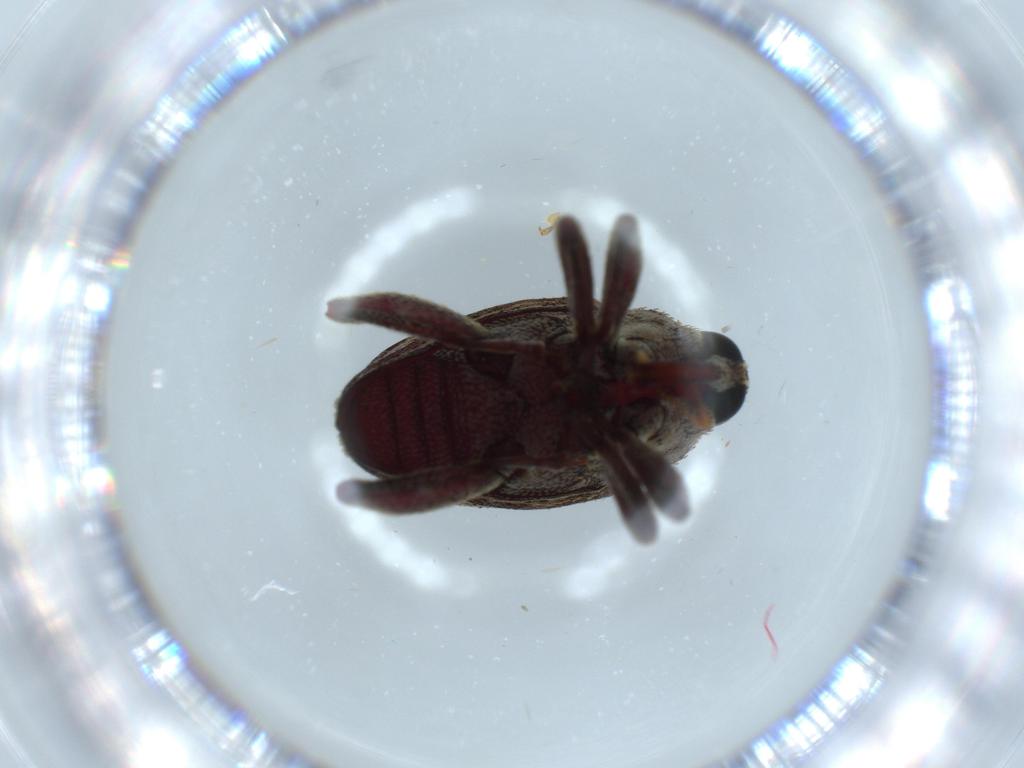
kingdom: Animalia
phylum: Arthropoda
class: Insecta
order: Coleoptera
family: Curculionidae
